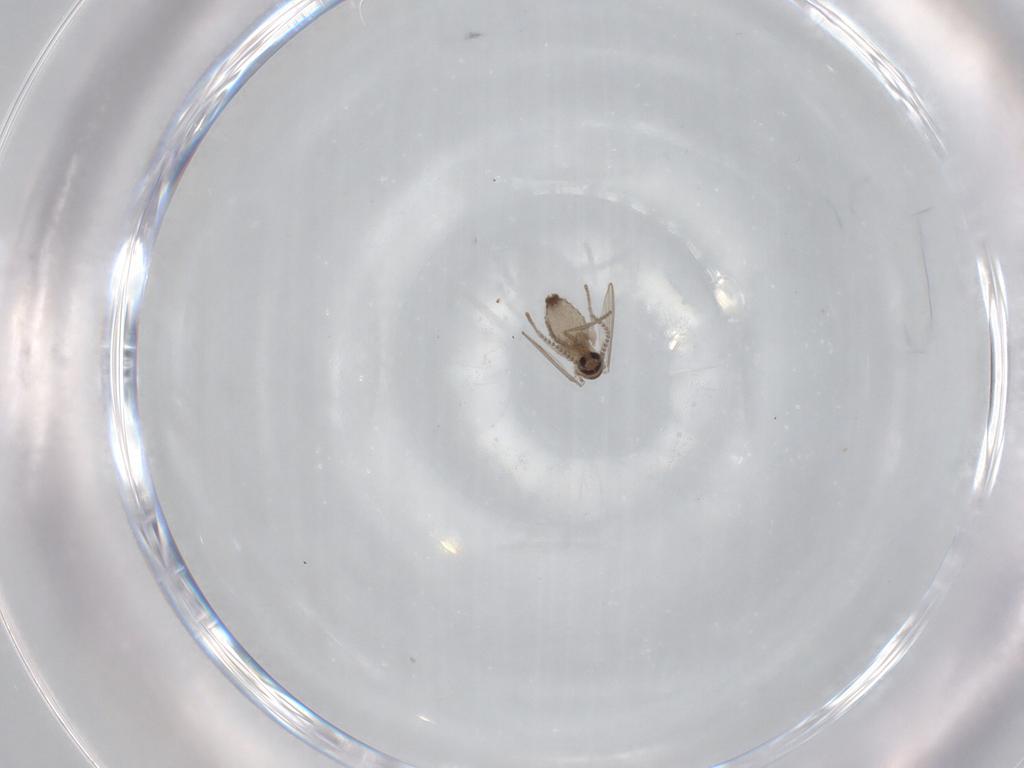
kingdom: Animalia
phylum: Arthropoda
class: Insecta
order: Diptera
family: Psychodidae
